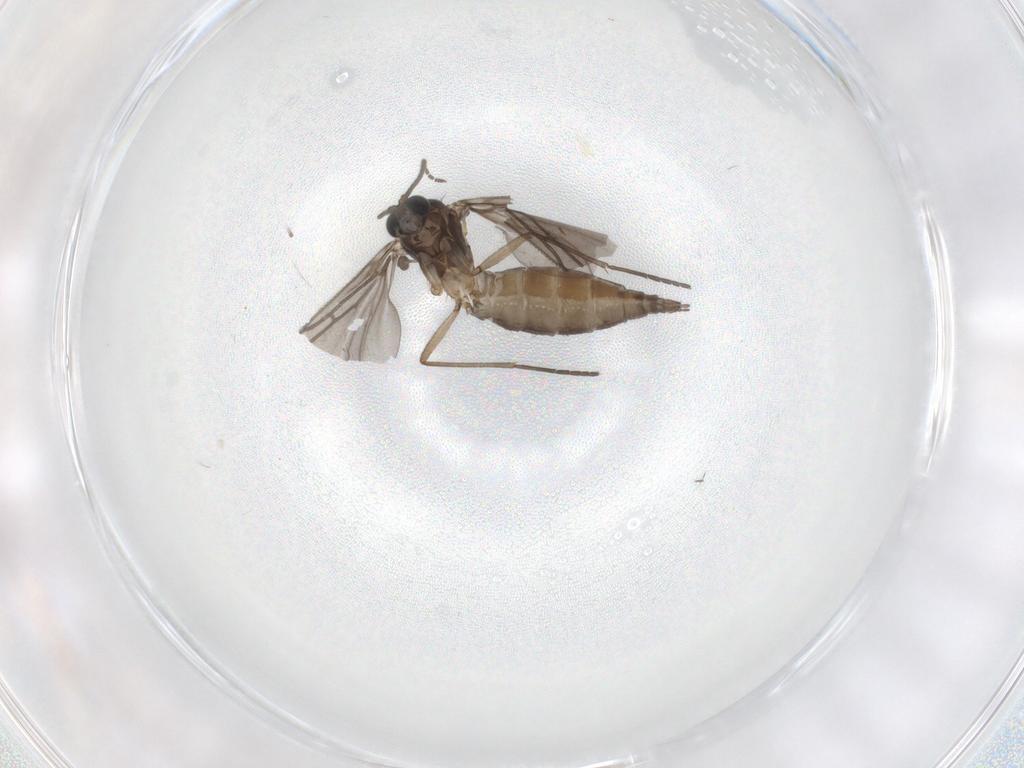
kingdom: Animalia
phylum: Arthropoda
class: Insecta
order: Diptera
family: Sciaridae
